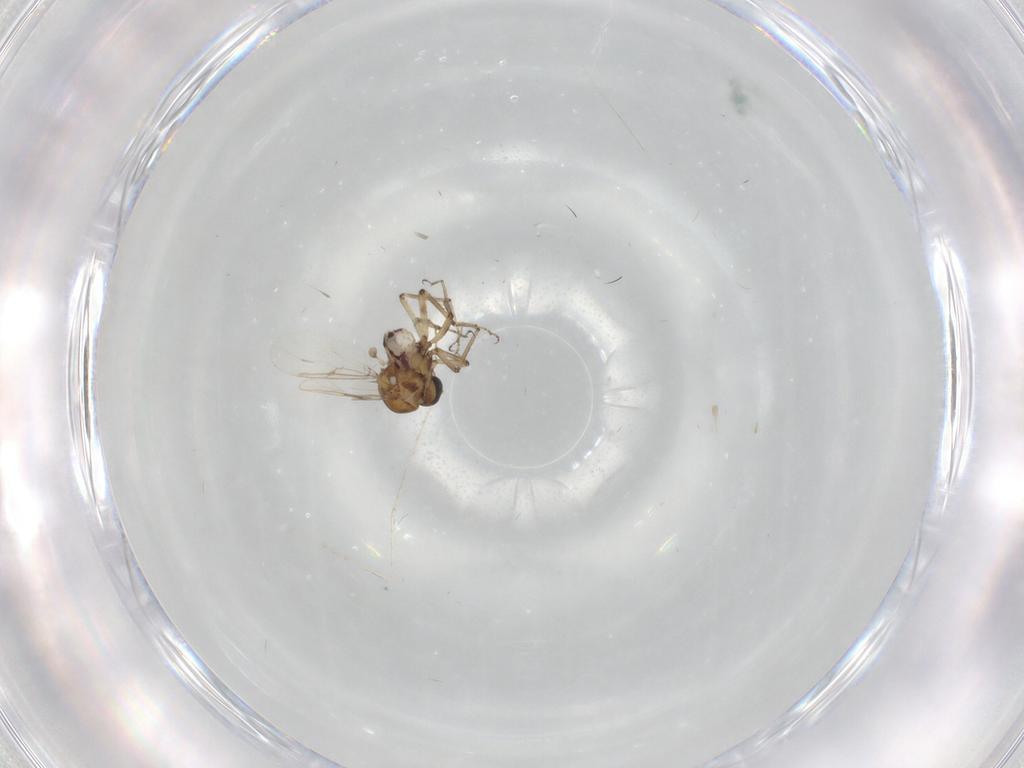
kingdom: Animalia
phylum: Arthropoda
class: Insecta
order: Diptera
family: Ceratopogonidae
